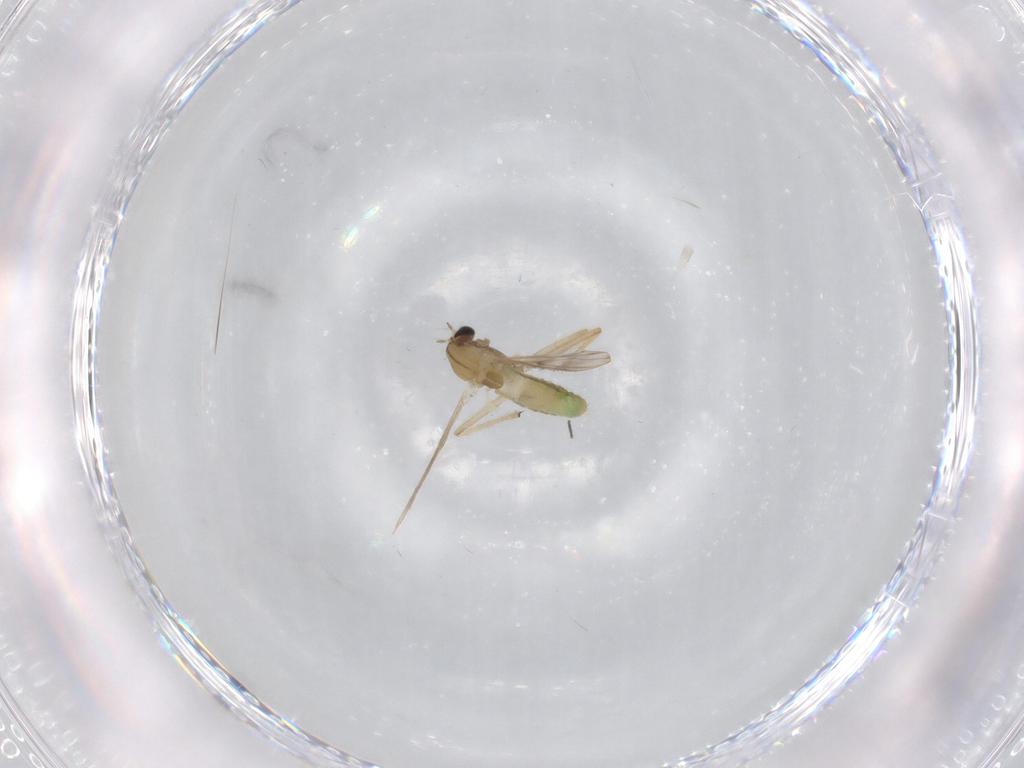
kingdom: Animalia
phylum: Arthropoda
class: Insecta
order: Diptera
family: Chironomidae
